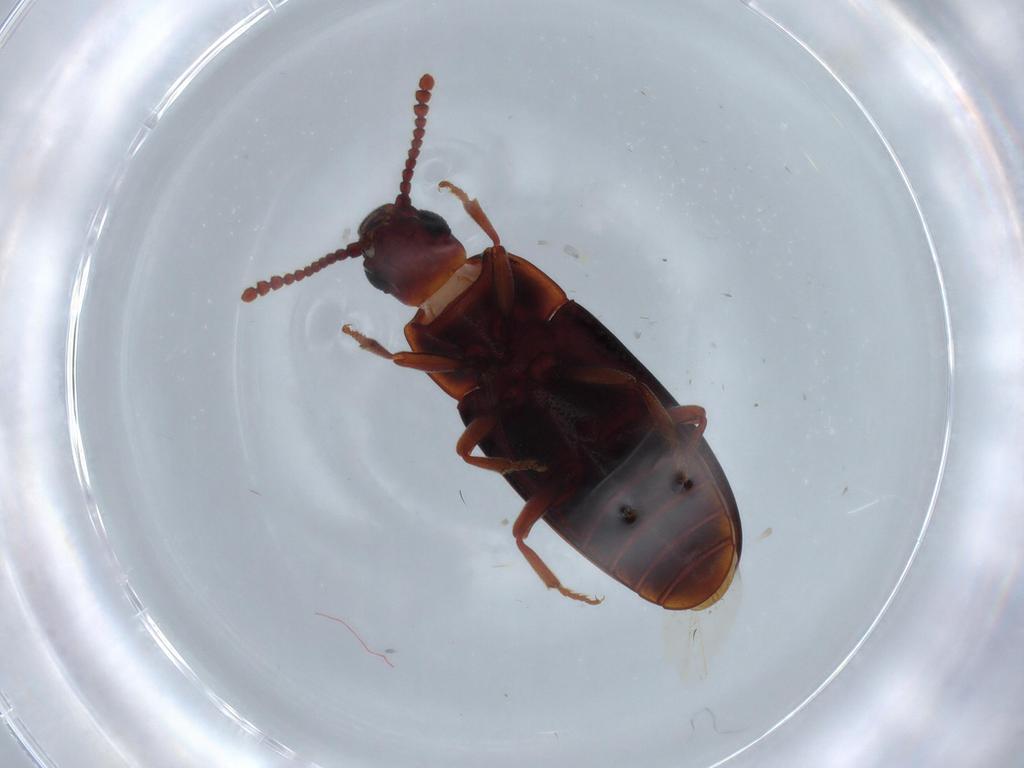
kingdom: Animalia
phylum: Arthropoda
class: Insecta
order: Coleoptera
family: Erotylidae
